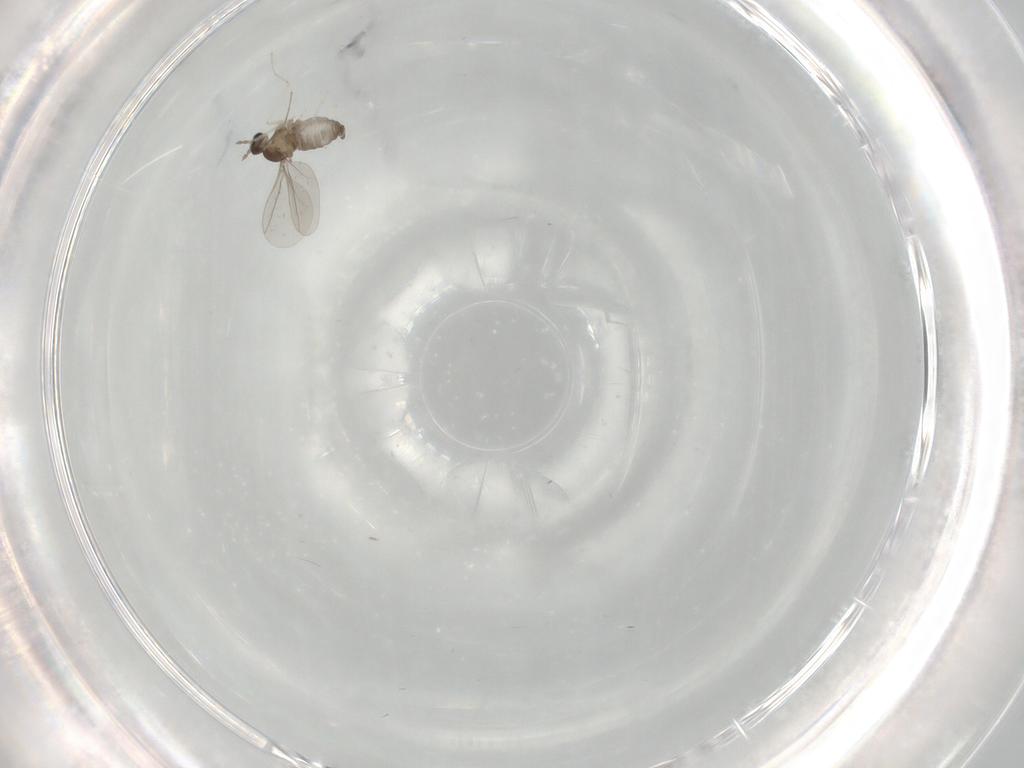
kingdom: Animalia
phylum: Arthropoda
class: Insecta
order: Diptera
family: Cecidomyiidae
